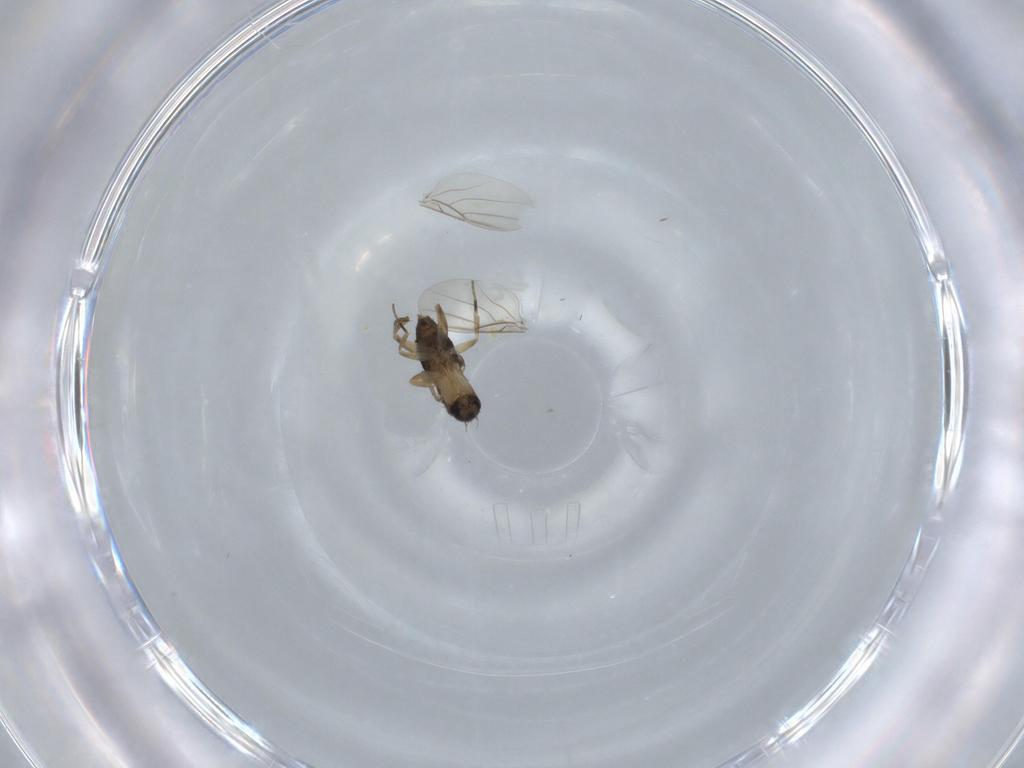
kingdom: Animalia
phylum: Arthropoda
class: Insecta
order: Diptera
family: Phoridae
